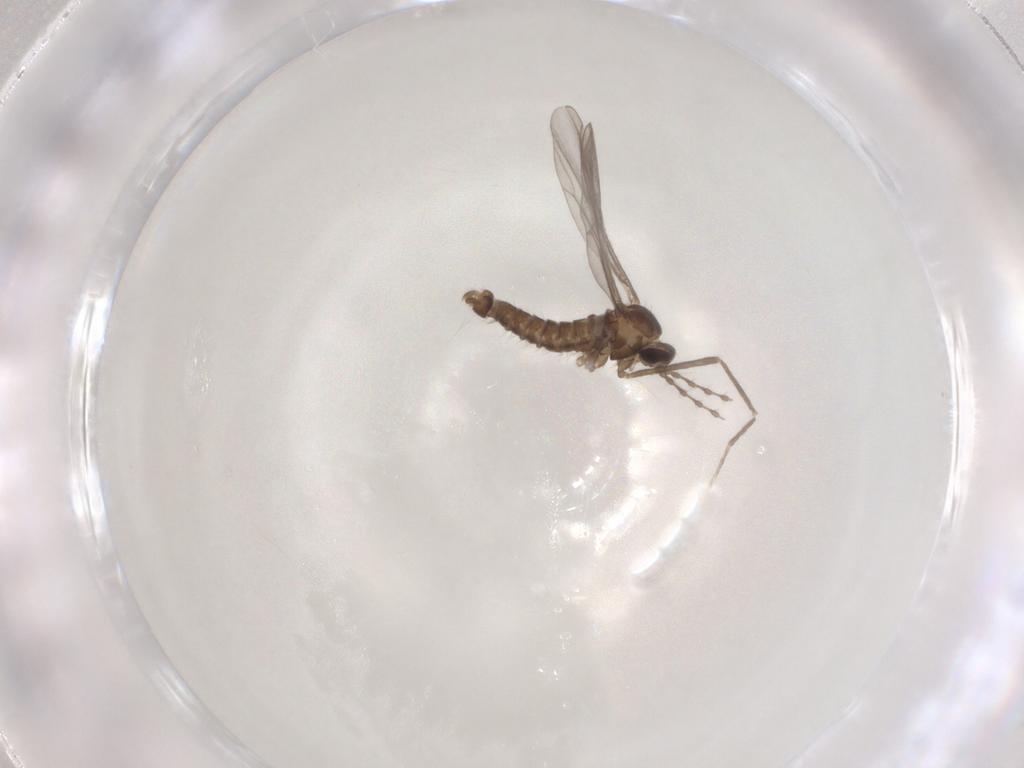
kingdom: Animalia
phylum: Arthropoda
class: Insecta
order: Diptera
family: Cecidomyiidae
